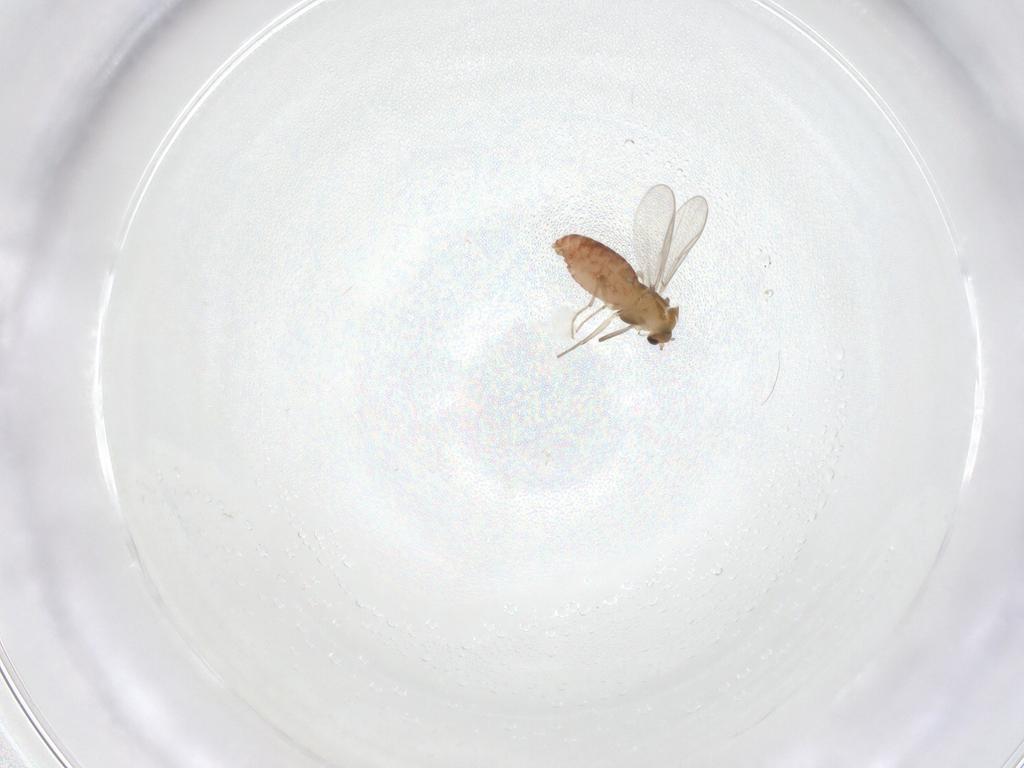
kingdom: Animalia
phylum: Arthropoda
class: Insecta
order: Diptera
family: Chironomidae
